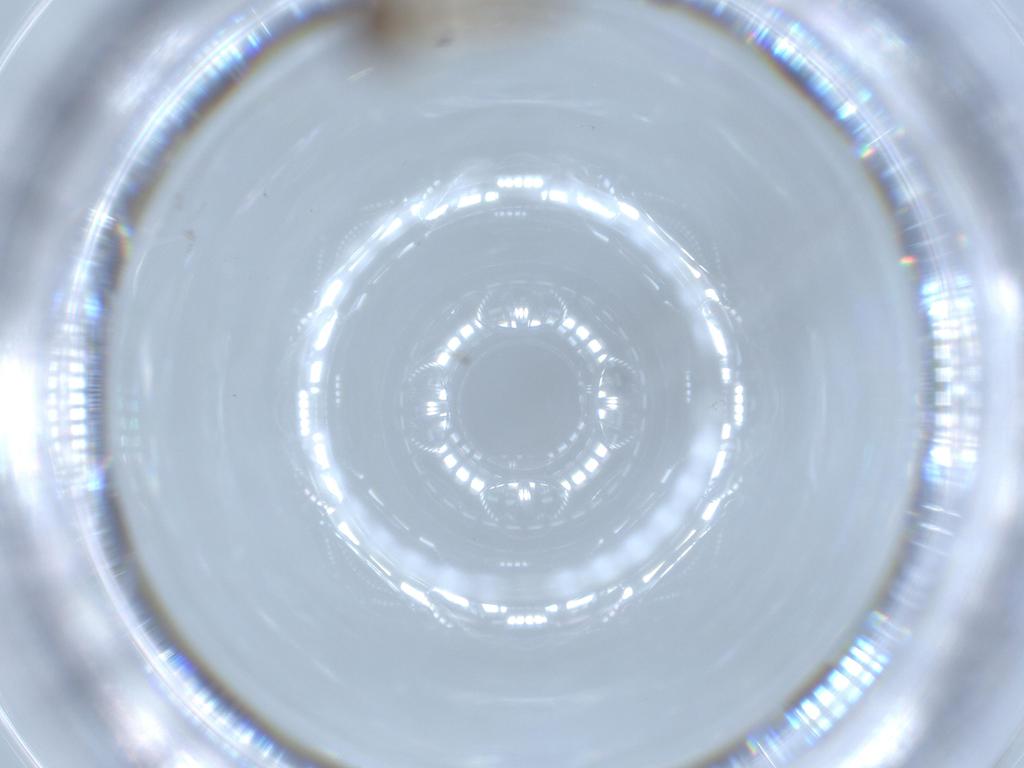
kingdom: Animalia
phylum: Arthropoda
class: Insecta
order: Diptera
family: Ceratopogonidae
